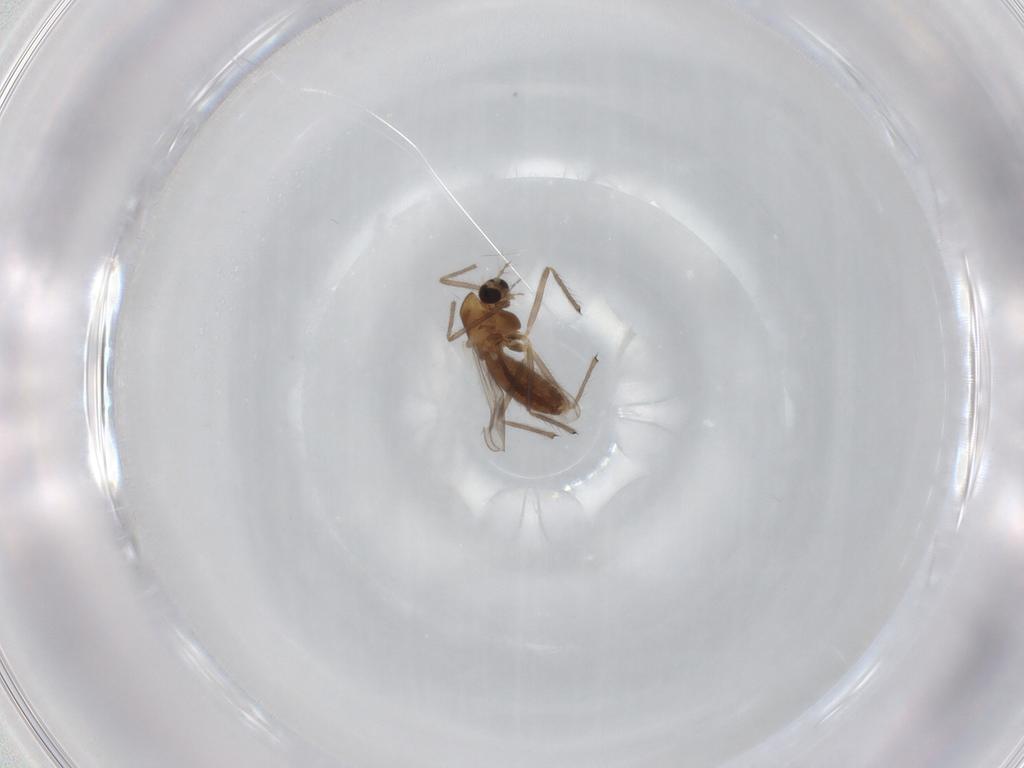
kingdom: Animalia
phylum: Arthropoda
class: Insecta
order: Diptera
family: Chironomidae
